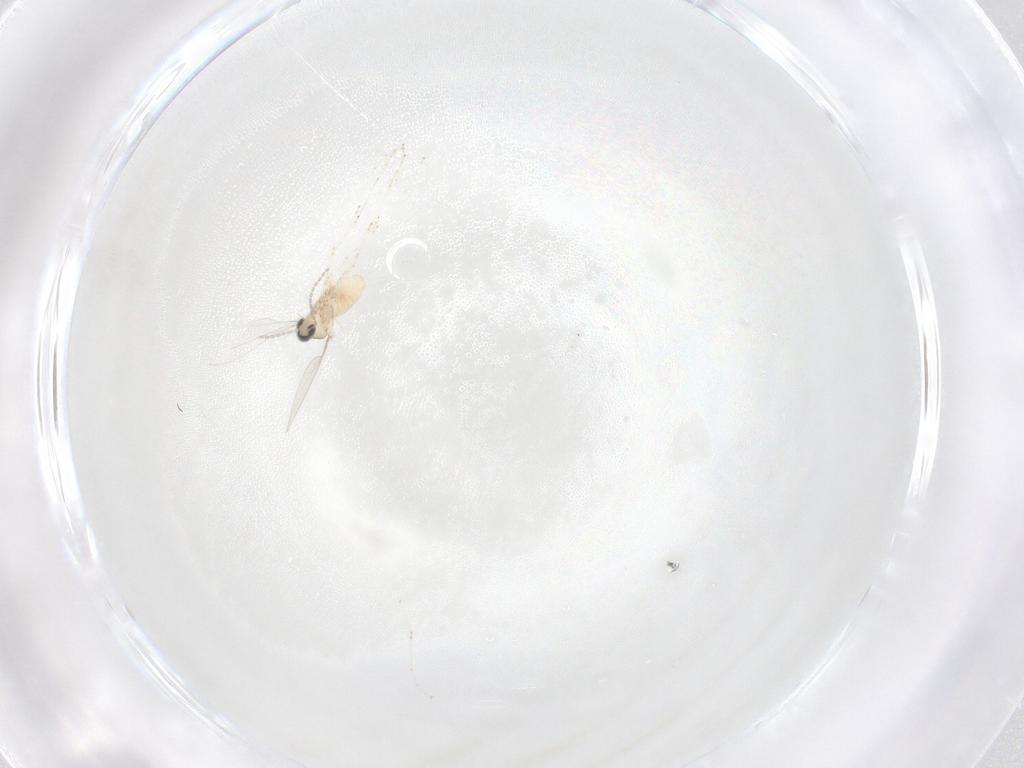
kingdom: Animalia
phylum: Arthropoda
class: Insecta
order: Diptera
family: Cecidomyiidae
